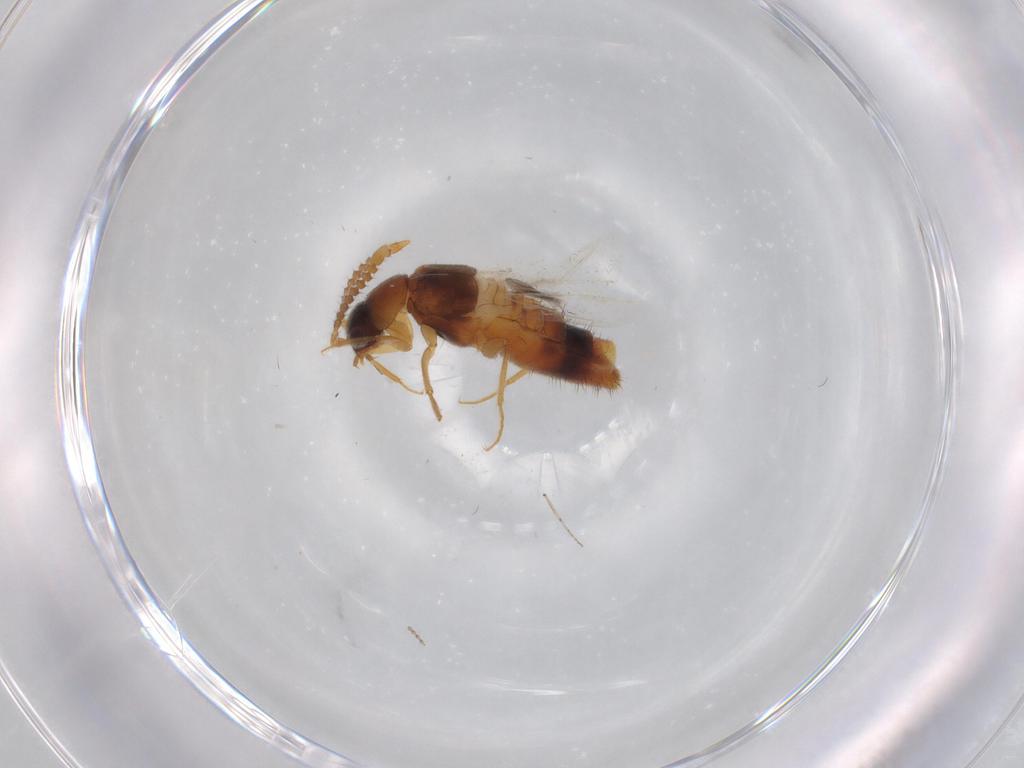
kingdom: Animalia
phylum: Arthropoda
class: Insecta
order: Coleoptera
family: Staphylinidae
